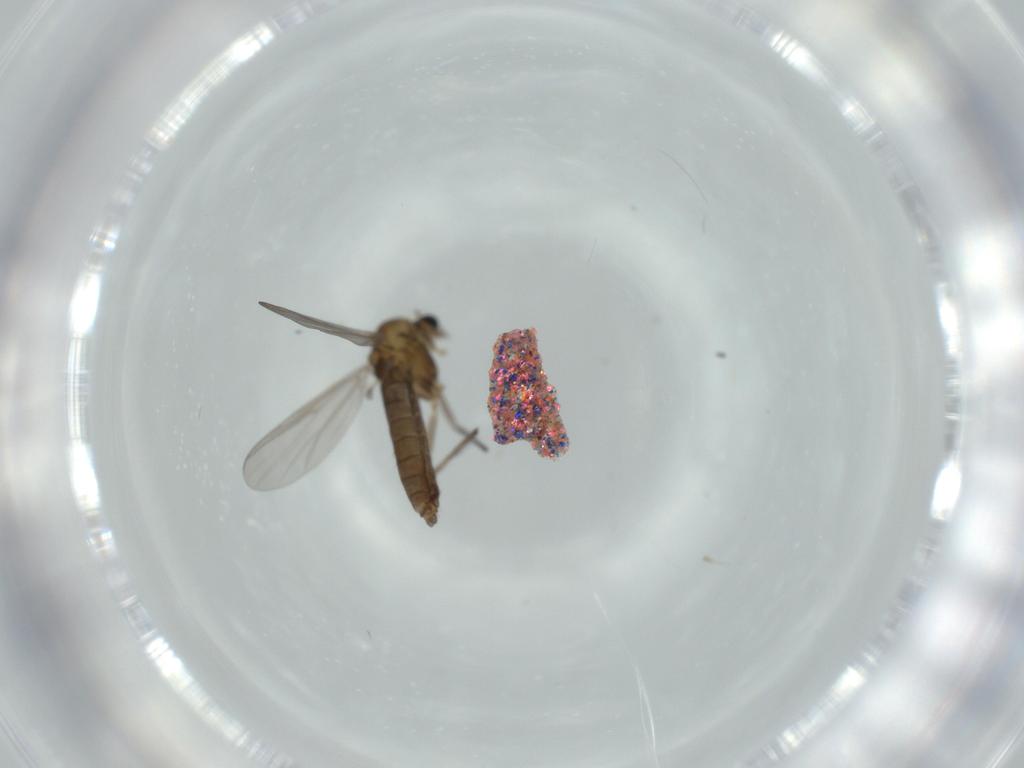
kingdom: Animalia
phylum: Arthropoda
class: Insecta
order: Diptera
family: Chironomidae
